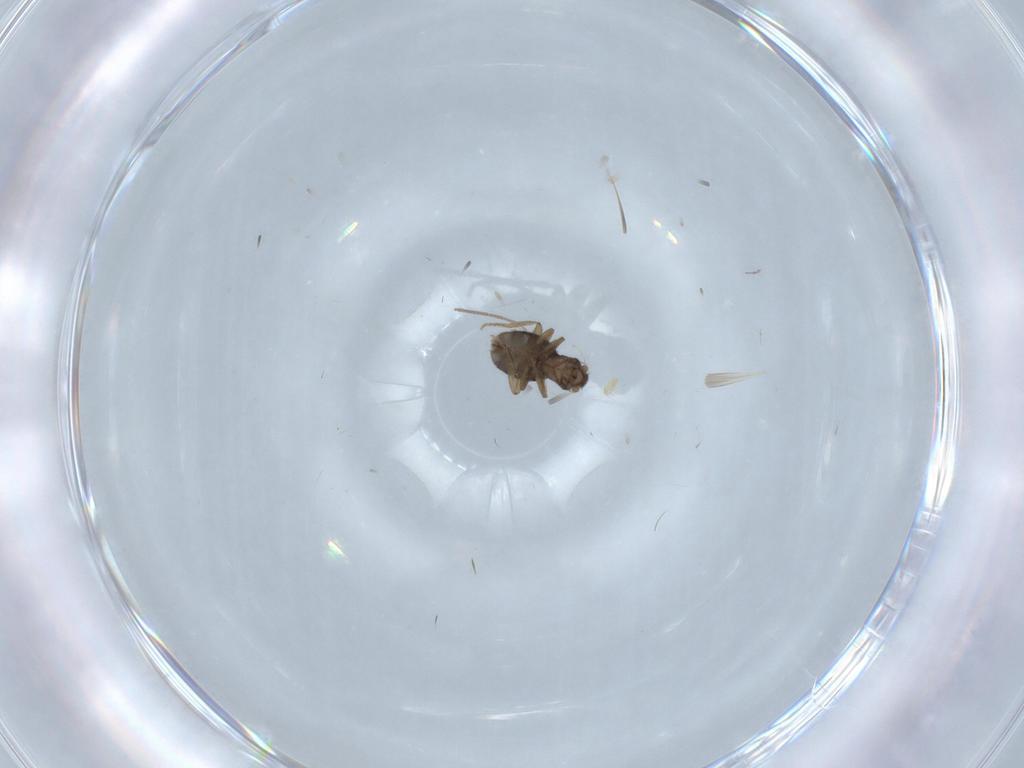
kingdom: Animalia
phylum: Arthropoda
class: Insecta
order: Diptera
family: Phoridae
